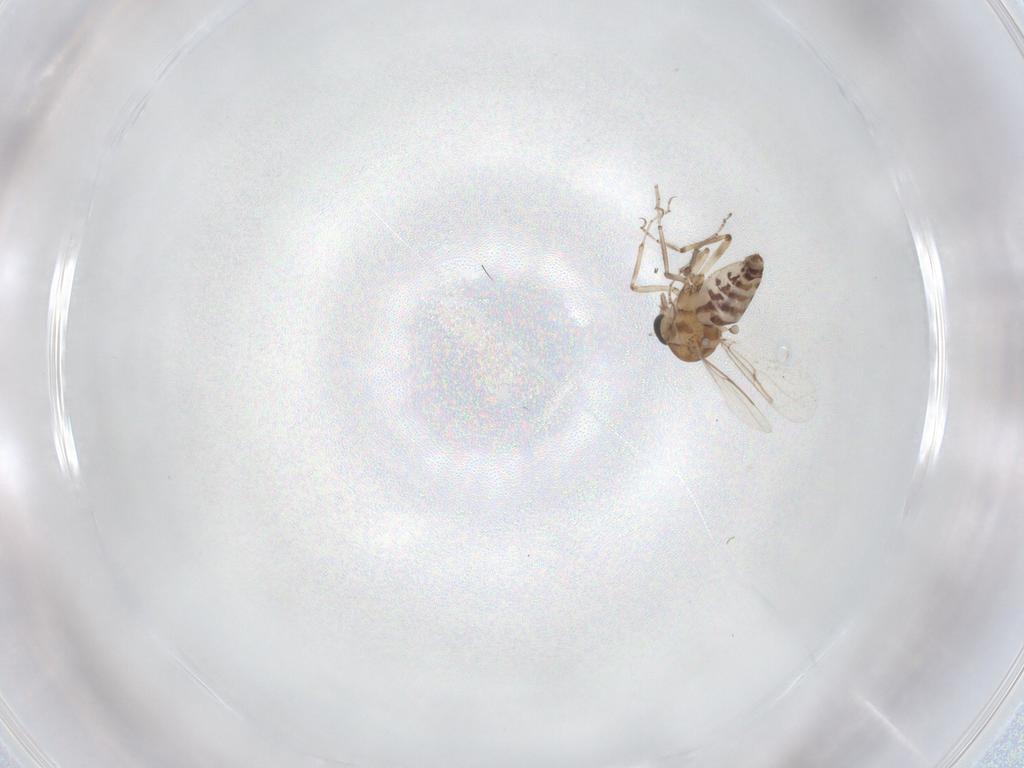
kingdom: Animalia
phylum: Arthropoda
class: Insecta
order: Diptera
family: Ceratopogonidae
